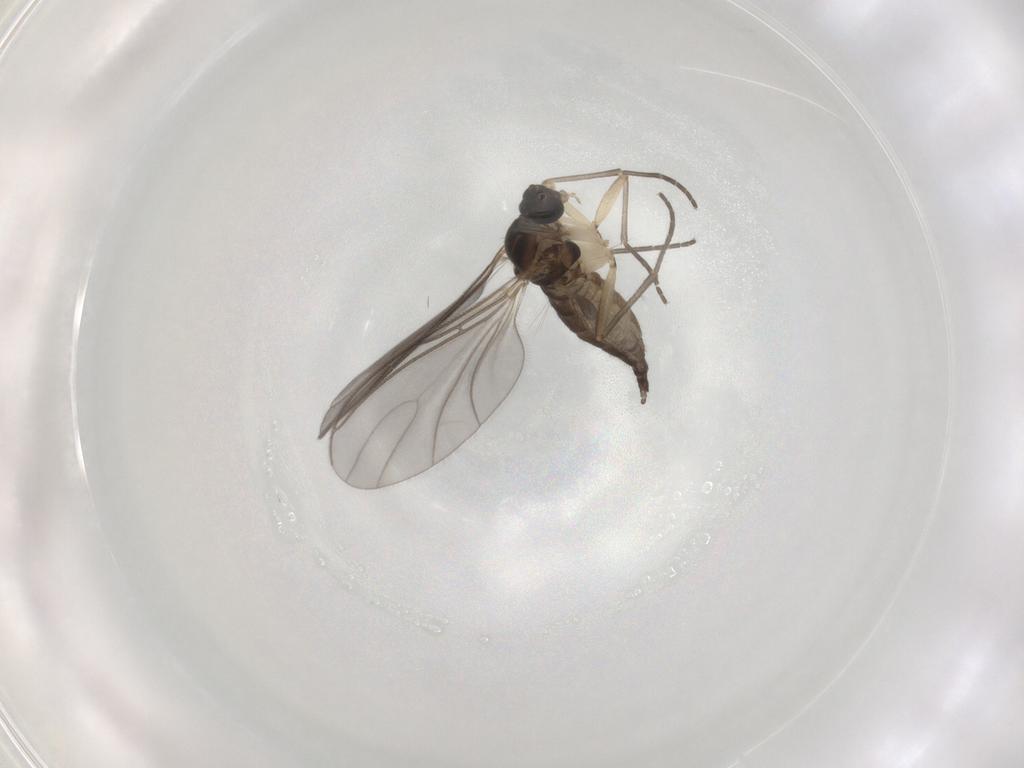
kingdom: Animalia
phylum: Arthropoda
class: Insecta
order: Diptera
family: Sciaridae
